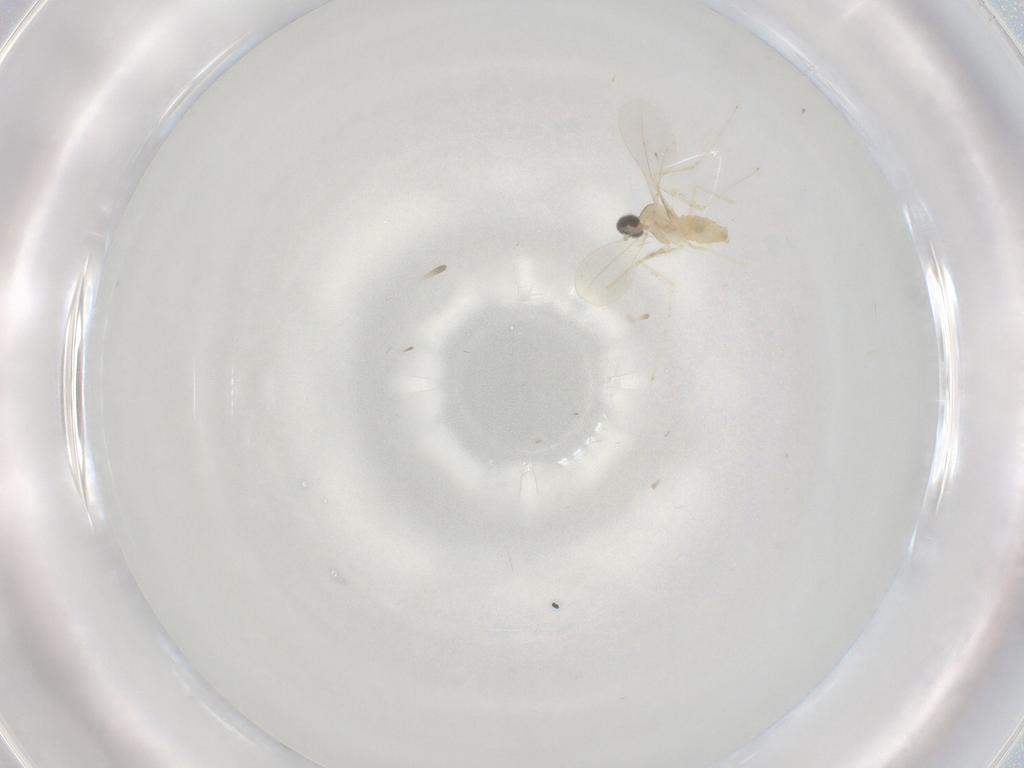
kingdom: Animalia
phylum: Arthropoda
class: Insecta
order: Diptera
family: Cecidomyiidae
